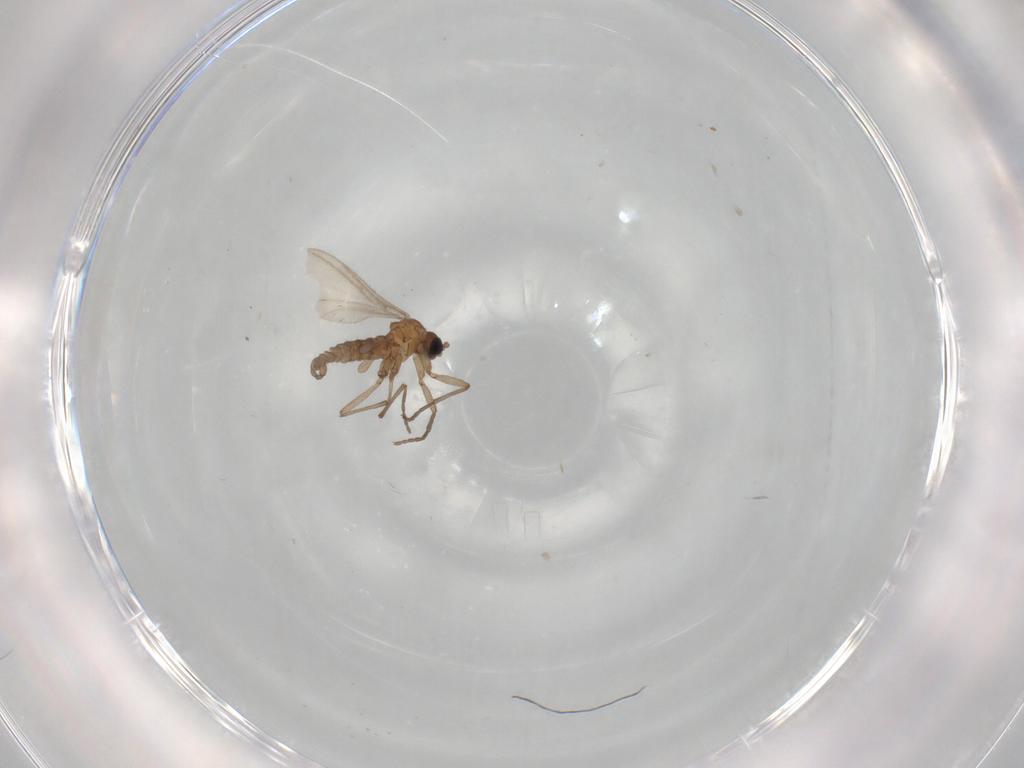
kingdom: Animalia
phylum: Arthropoda
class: Insecta
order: Diptera
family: Sciaridae
